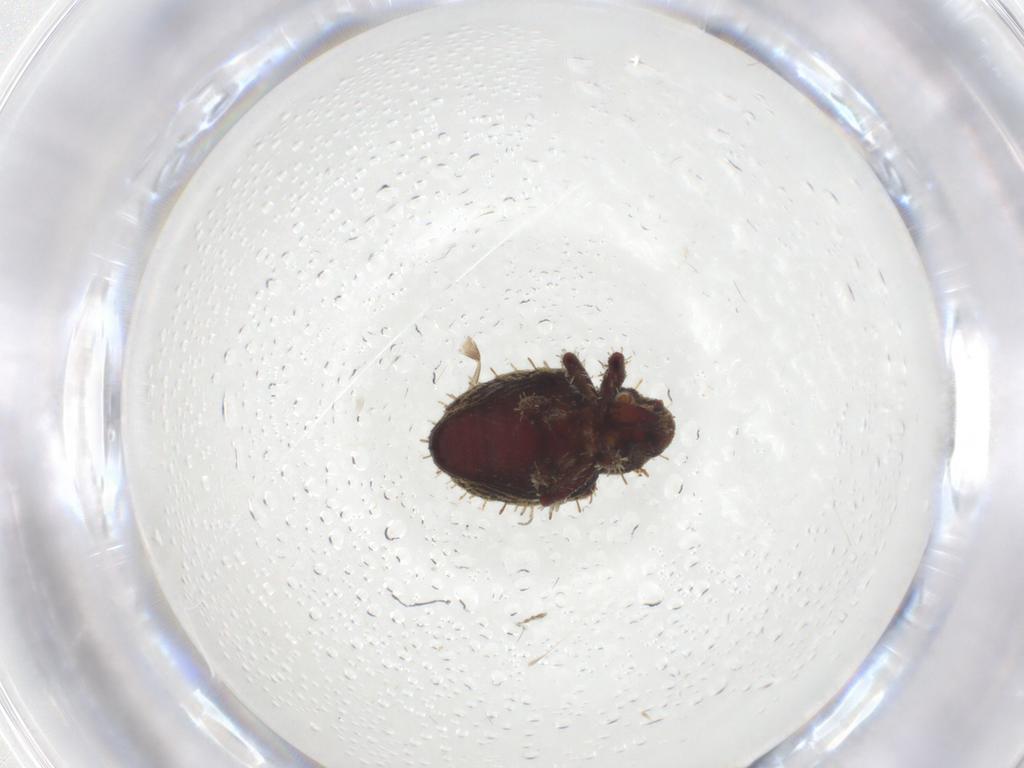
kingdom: Animalia
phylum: Arthropoda
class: Insecta
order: Coleoptera
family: Curculionidae
